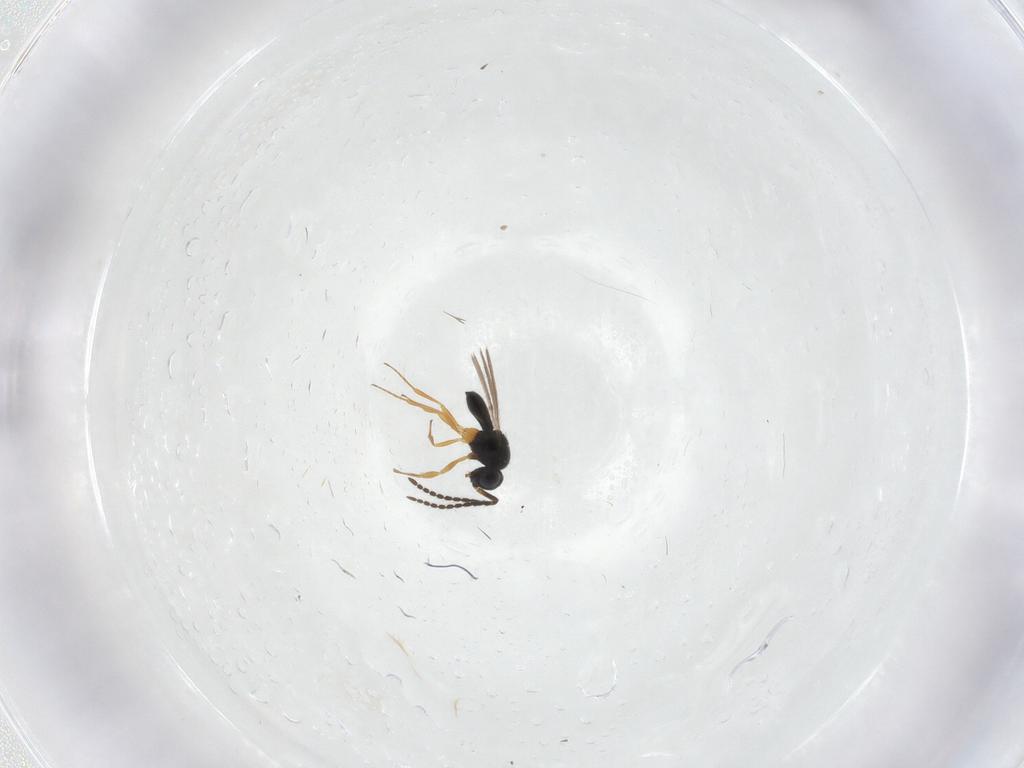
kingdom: Animalia
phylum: Arthropoda
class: Insecta
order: Hymenoptera
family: Scelionidae
